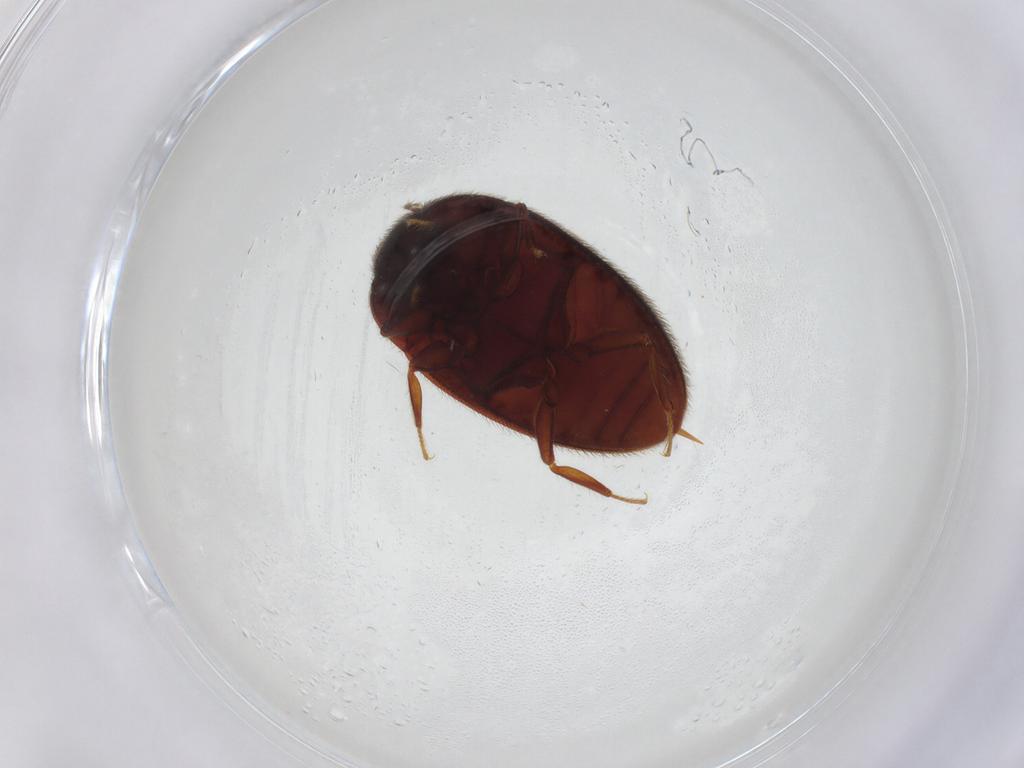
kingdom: Animalia
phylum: Arthropoda
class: Insecta
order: Coleoptera
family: Limnichidae
